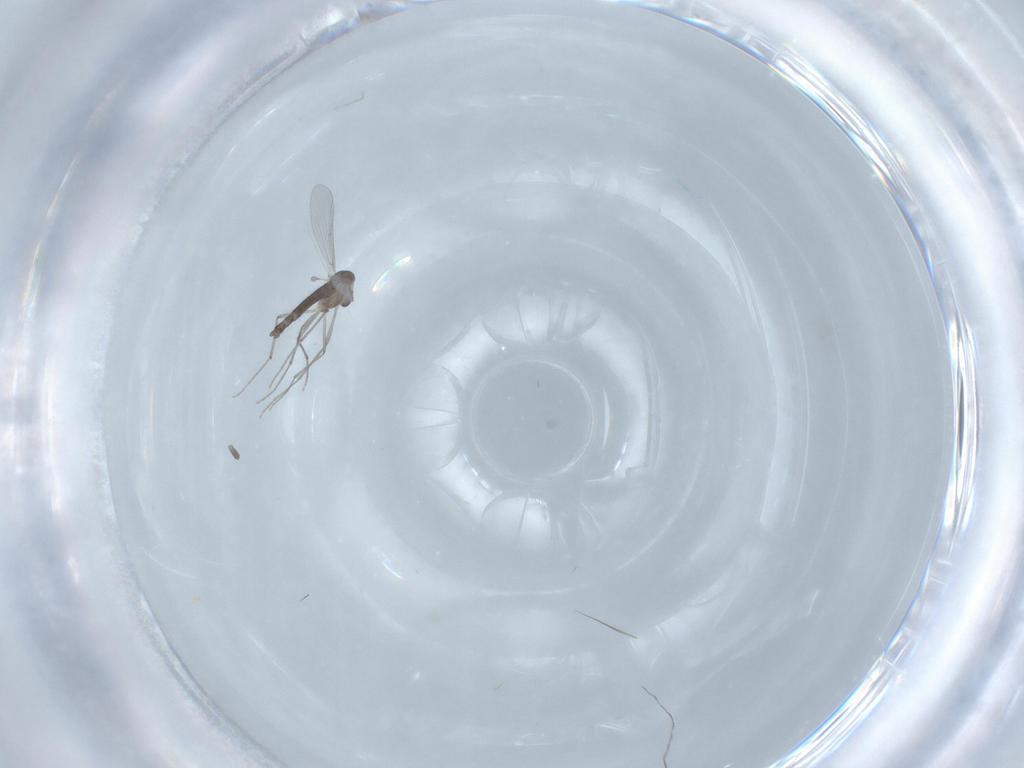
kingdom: Animalia
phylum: Arthropoda
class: Insecta
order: Diptera
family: Chironomidae
